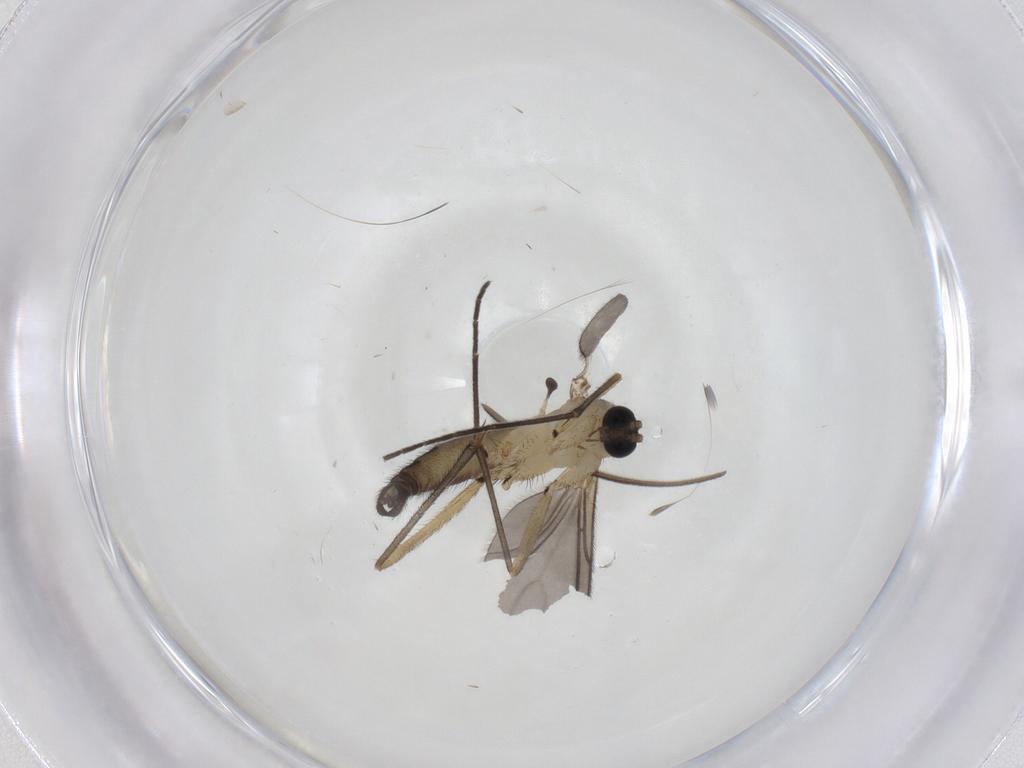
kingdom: Animalia
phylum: Arthropoda
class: Insecta
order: Diptera
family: Sciaridae
